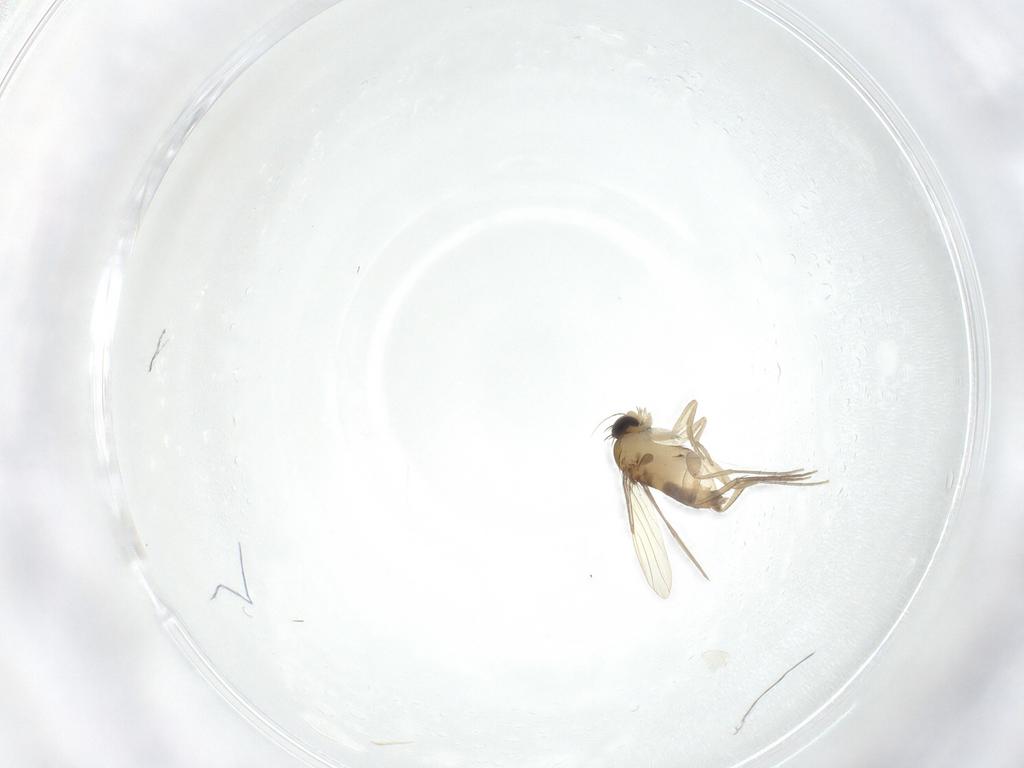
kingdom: Animalia
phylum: Arthropoda
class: Insecta
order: Diptera
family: Phoridae
